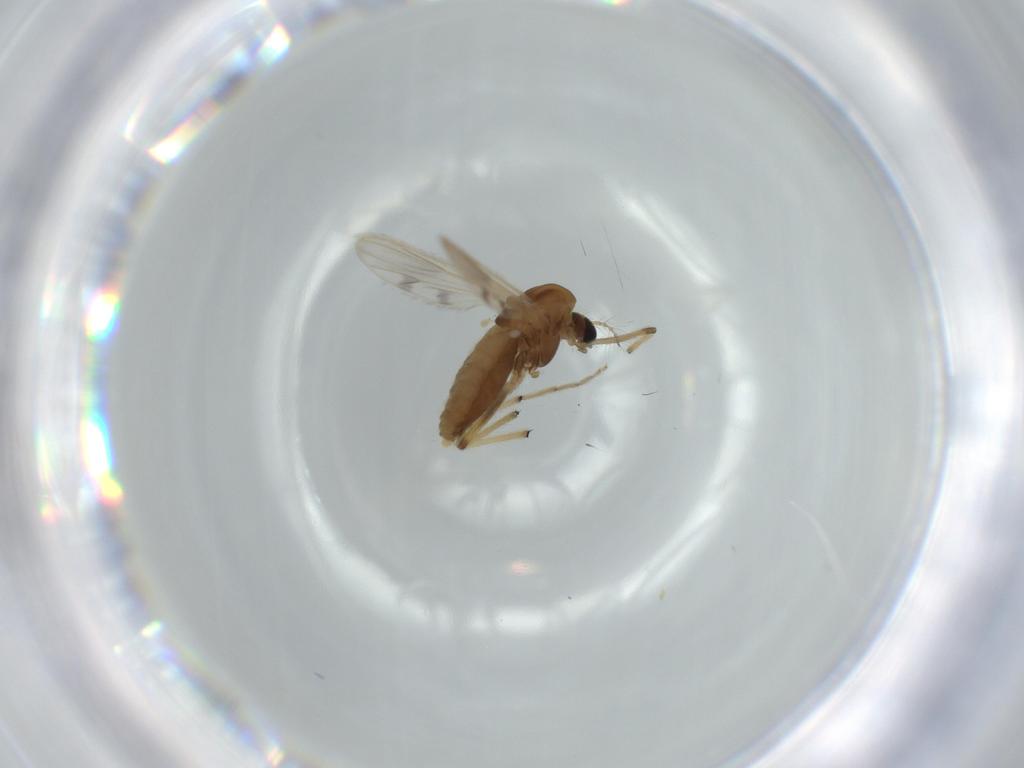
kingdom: Animalia
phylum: Arthropoda
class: Insecta
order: Diptera
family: Chironomidae
